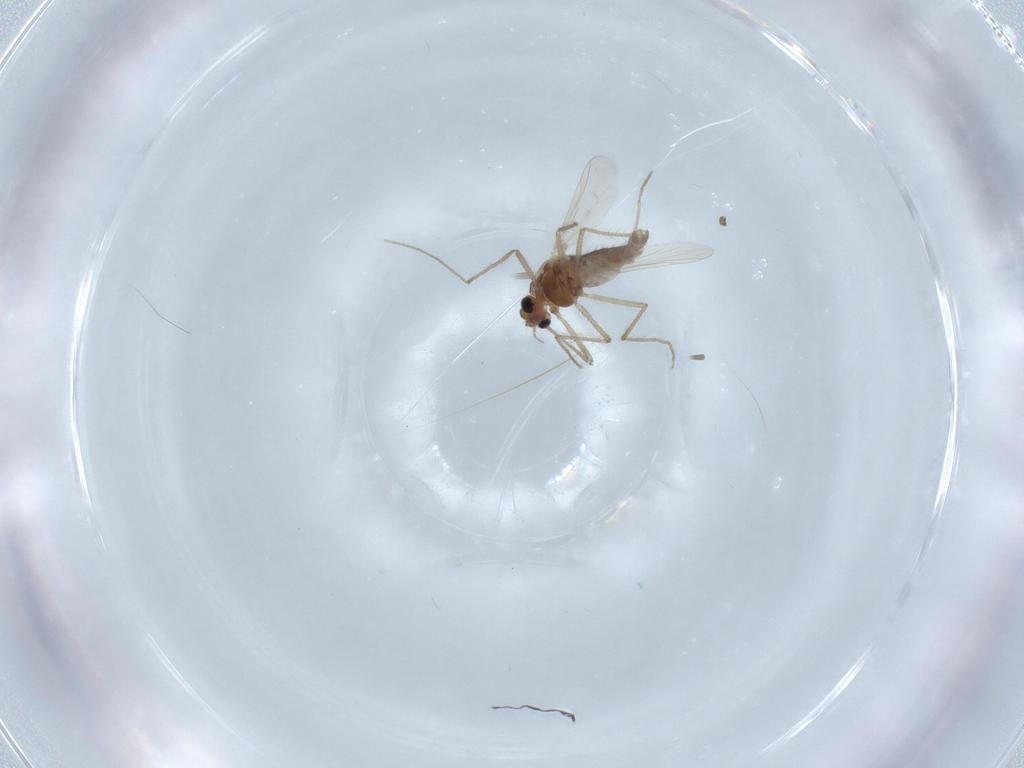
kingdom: Animalia
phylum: Arthropoda
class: Insecta
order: Diptera
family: Chironomidae
